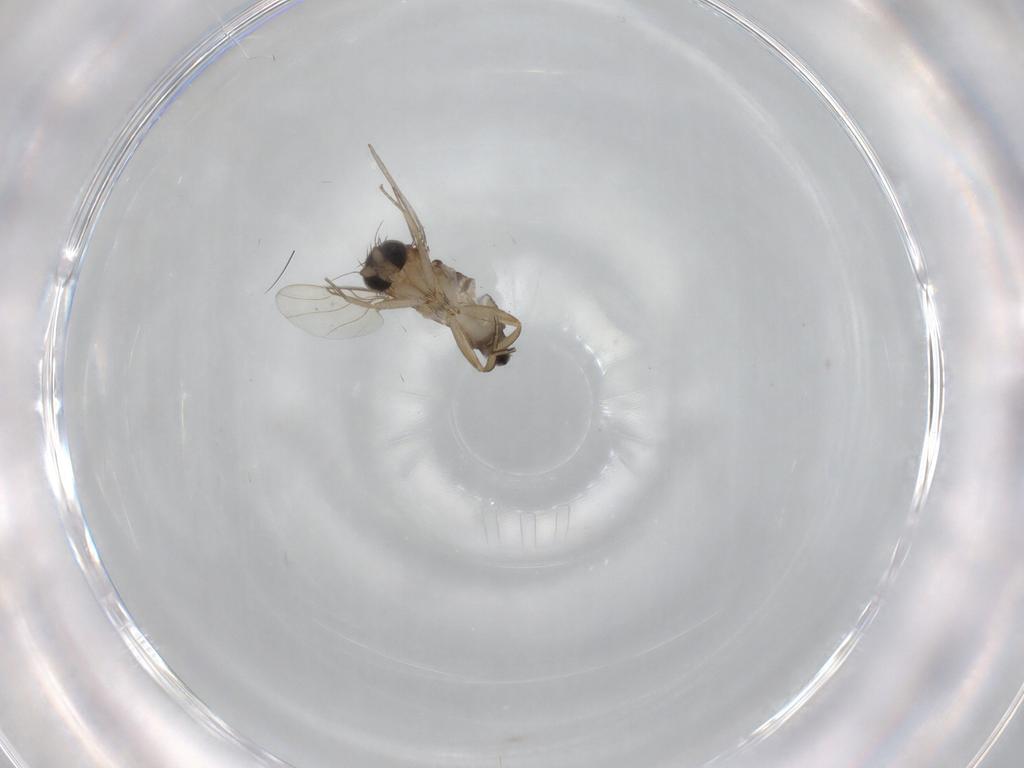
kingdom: Animalia
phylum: Arthropoda
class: Insecta
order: Diptera
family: Phoridae
